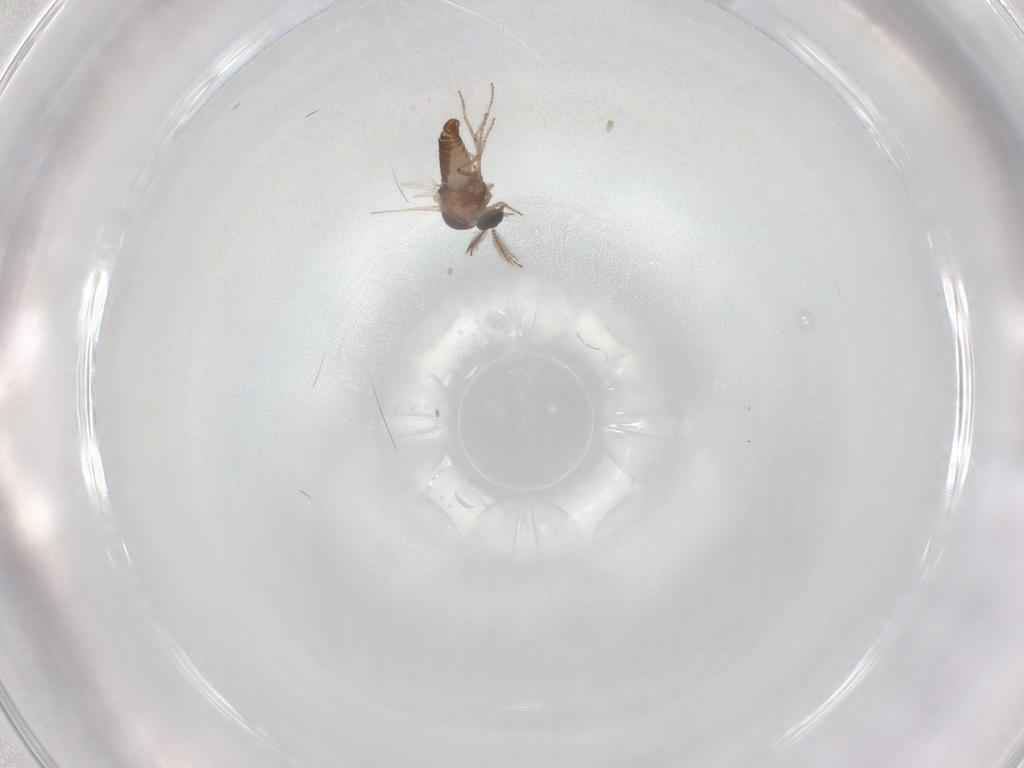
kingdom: Animalia
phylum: Arthropoda
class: Insecta
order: Diptera
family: Ceratopogonidae
